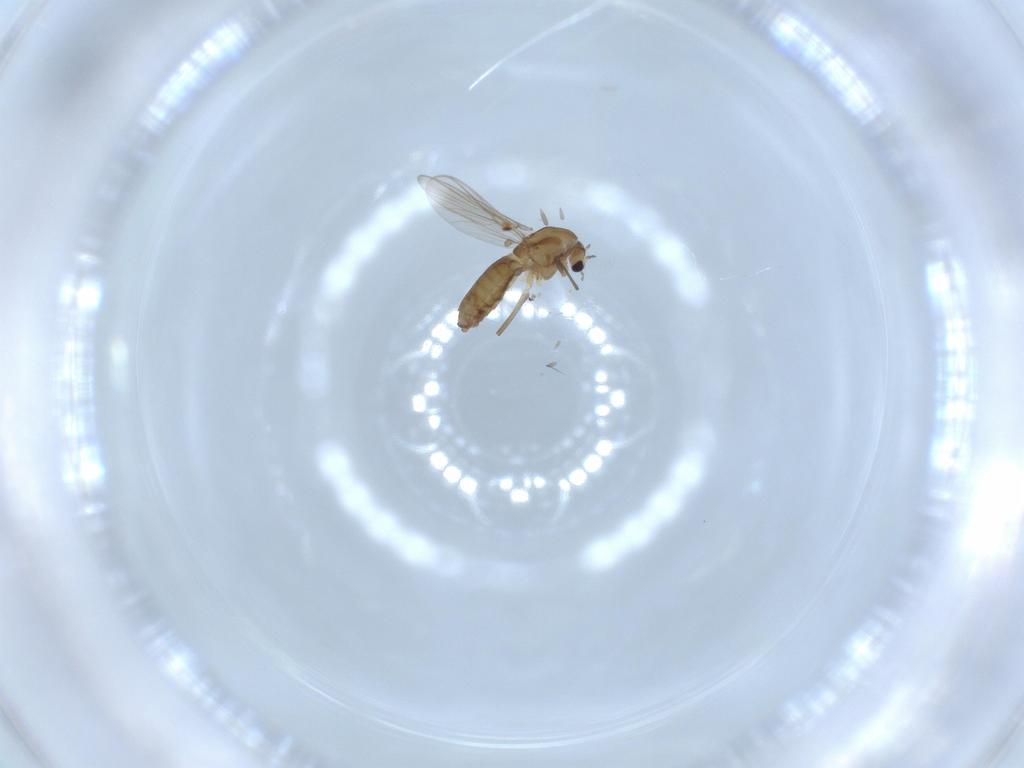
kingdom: Animalia
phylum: Arthropoda
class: Insecta
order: Diptera
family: Chironomidae
